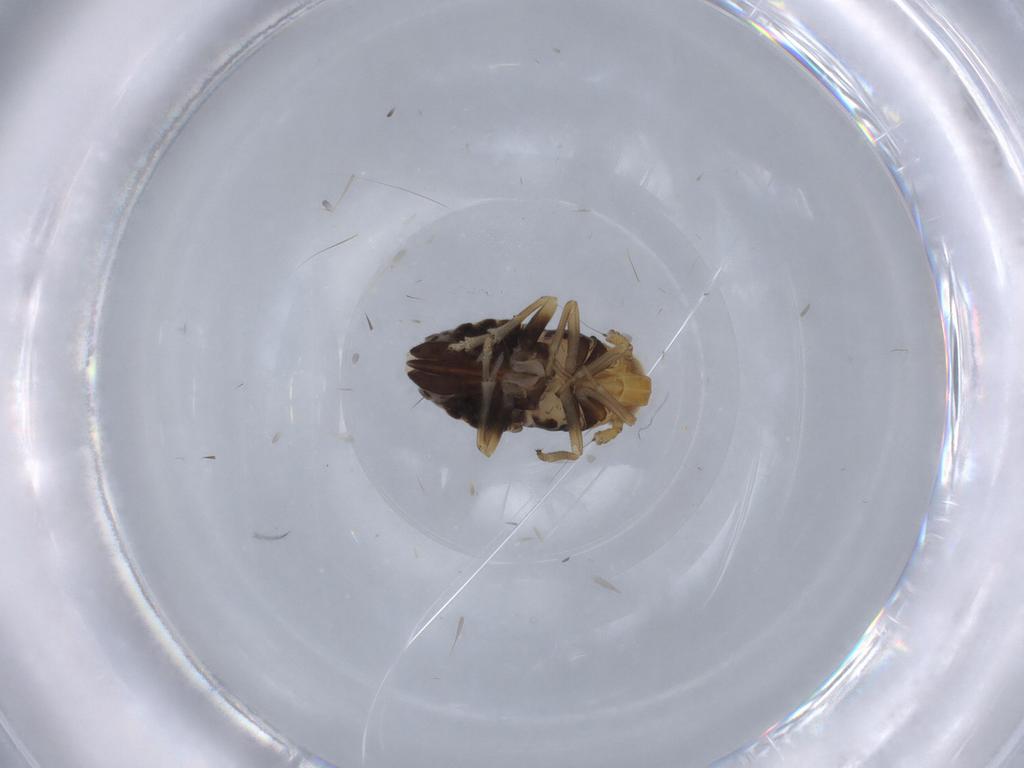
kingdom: Animalia
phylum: Arthropoda
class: Insecta
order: Hemiptera
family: Delphacidae
